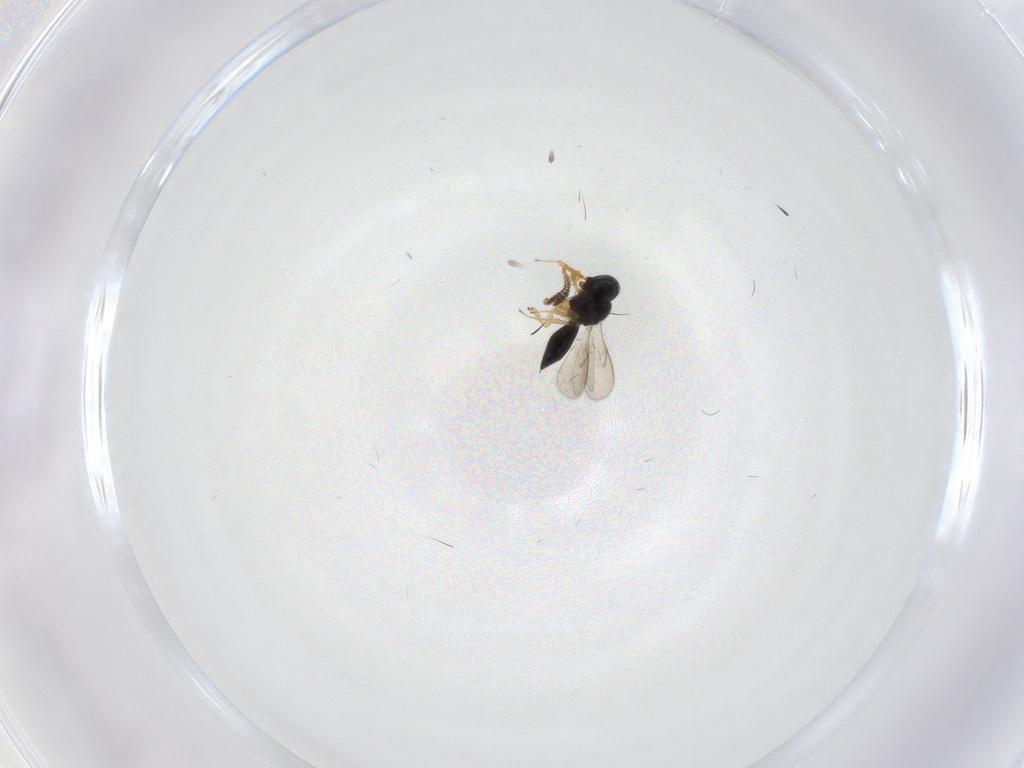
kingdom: Animalia
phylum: Arthropoda
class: Insecta
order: Hymenoptera
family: Scelionidae
